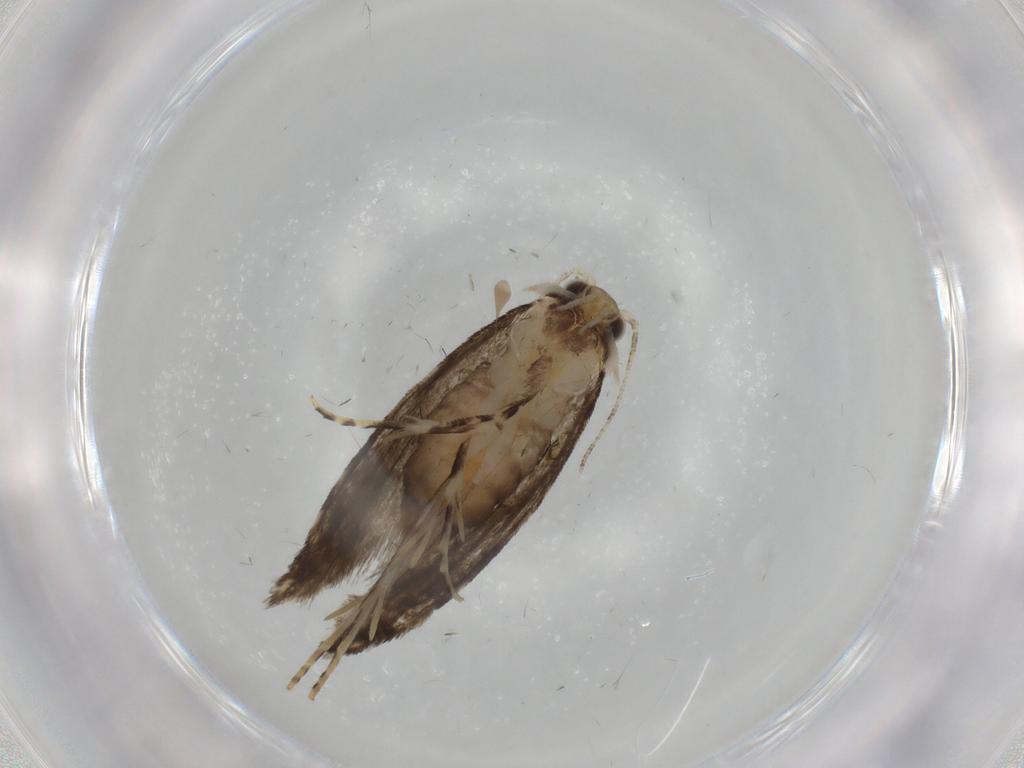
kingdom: Animalia
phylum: Arthropoda
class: Insecta
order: Lepidoptera
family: Tineidae
